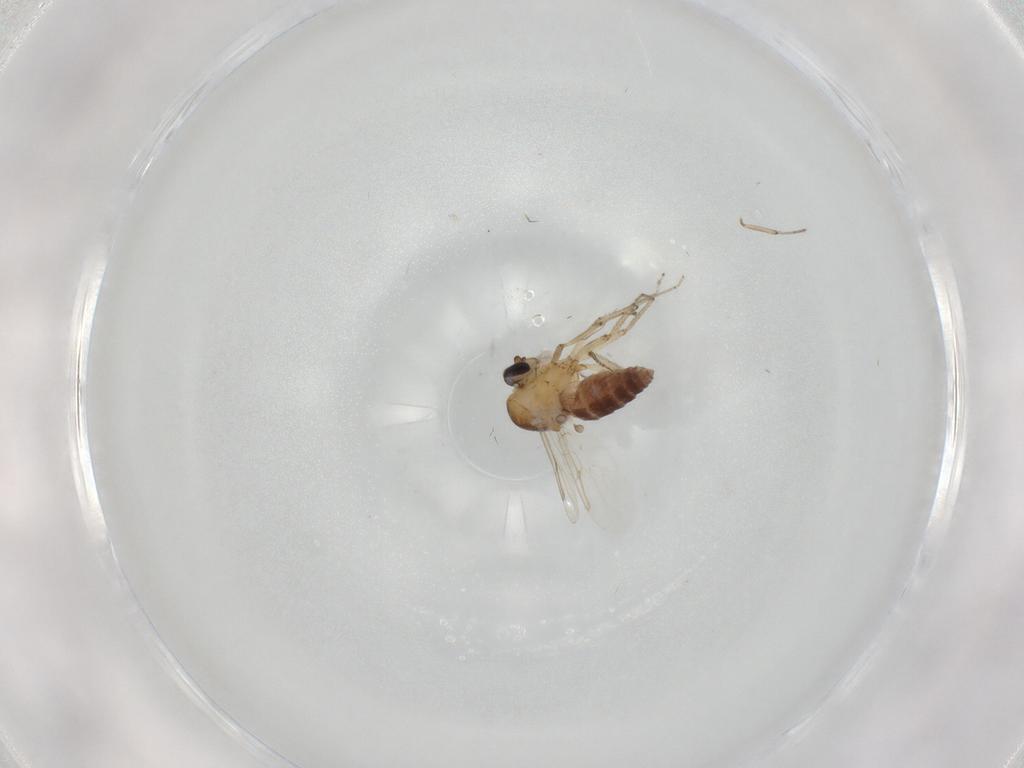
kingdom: Animalia
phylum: Arthropoda
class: Insecta
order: Diptera
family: Ceratopogonidae
